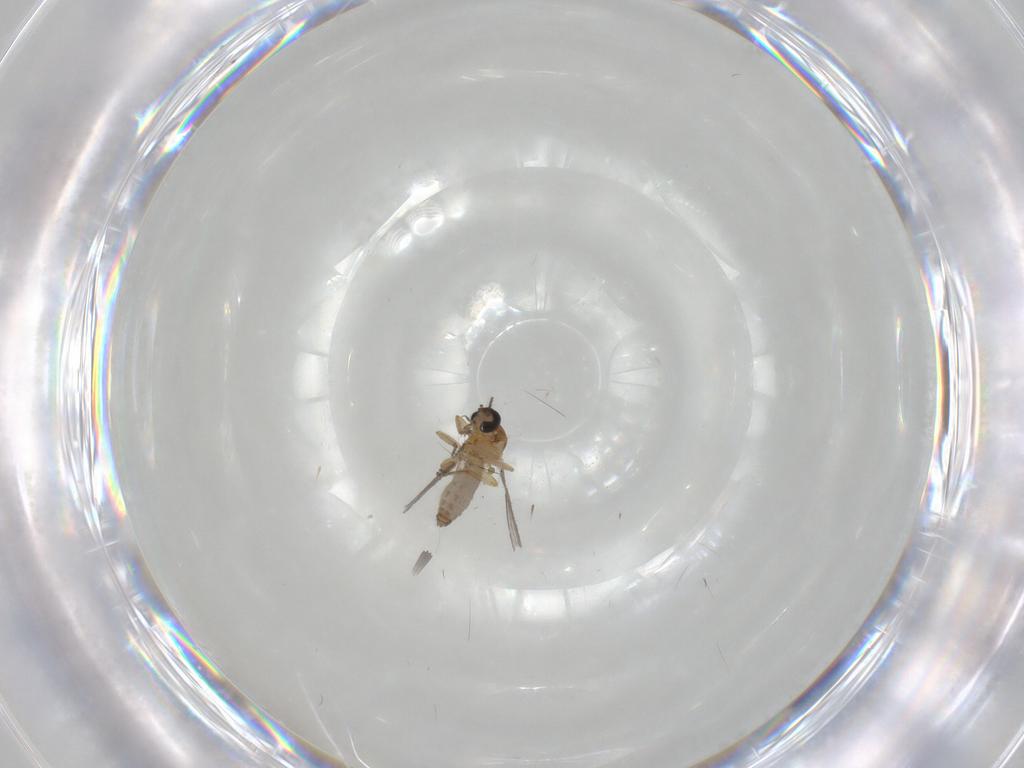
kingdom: Animalia
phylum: Arthropoda
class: Insecta
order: Diptera
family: Ceratopogonidae
